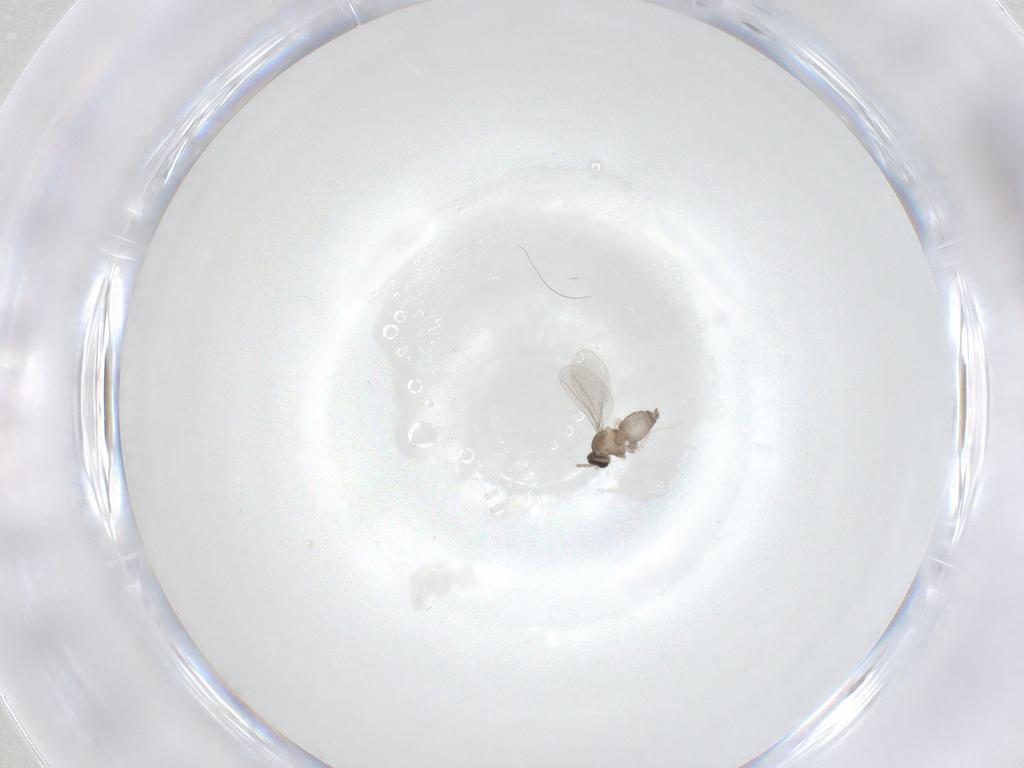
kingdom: Animalia
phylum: Arthropoda
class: Insecta
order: Diptera
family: Cecidomyiidae
